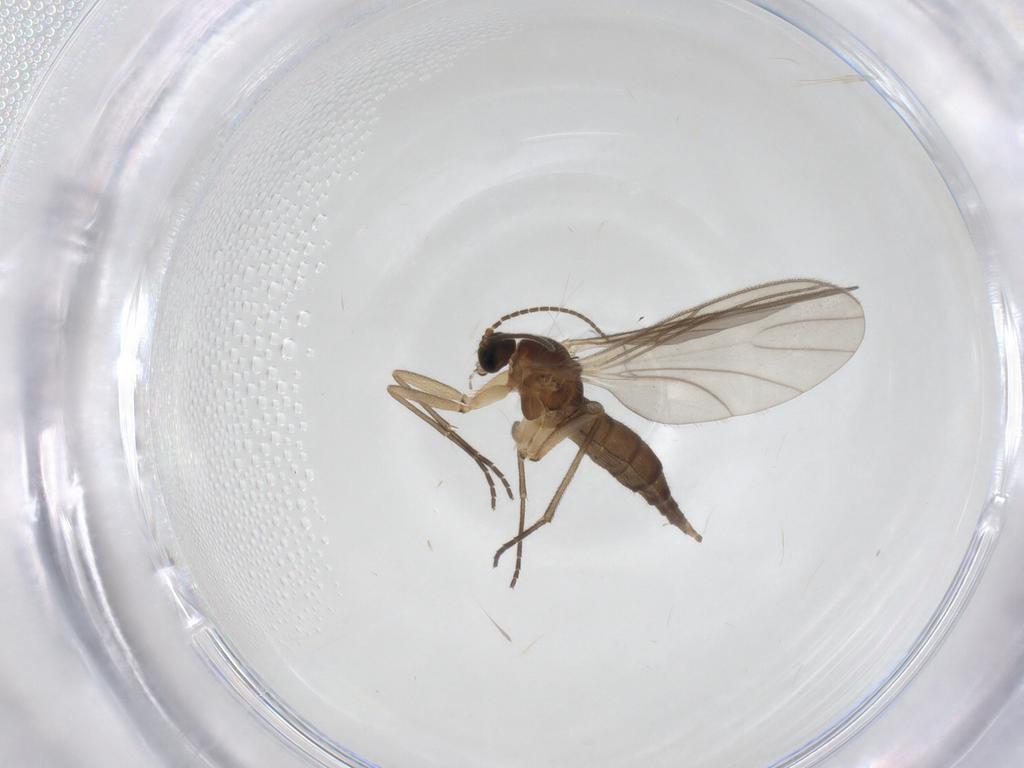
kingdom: Animalia
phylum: Arthropoda
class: Insecta
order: Diptera
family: Sciaridae
